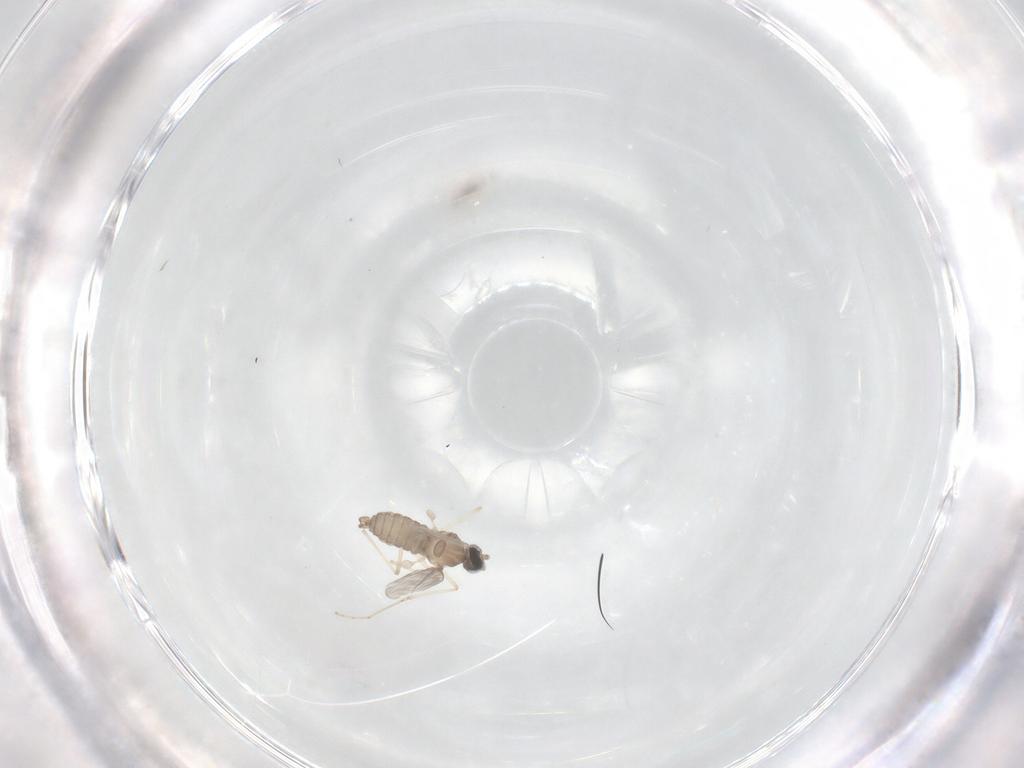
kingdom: Animalia
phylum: Arthropoda
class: Insecta
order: Diptera
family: Cecidomyiidae
